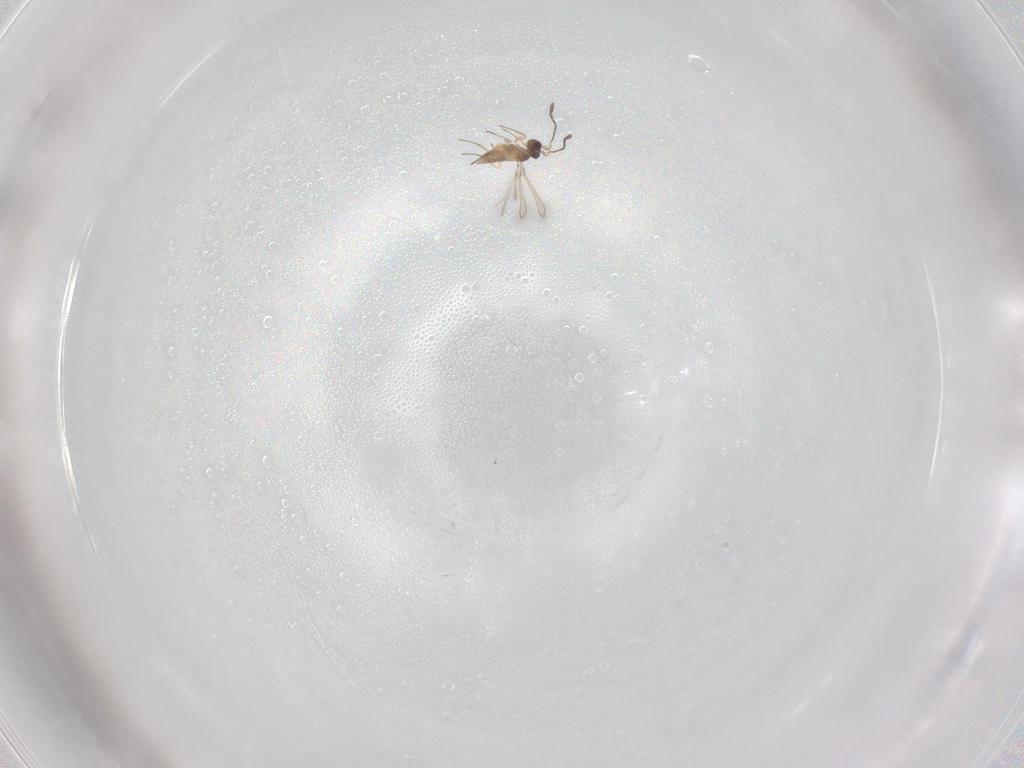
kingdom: Animalia
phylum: Arthropoda
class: Insecta
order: Hymenoptera
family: Mymaridae
